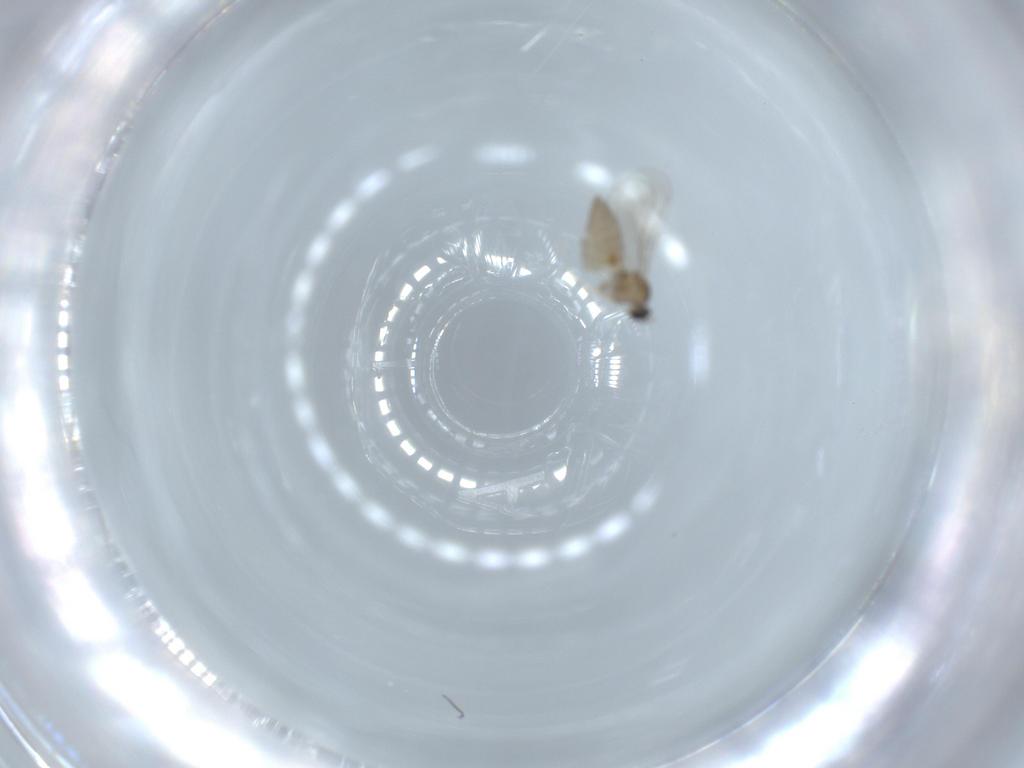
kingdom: Animalia
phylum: Arthropoda
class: Insecta
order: Diptera
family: Cecidomyiidae
